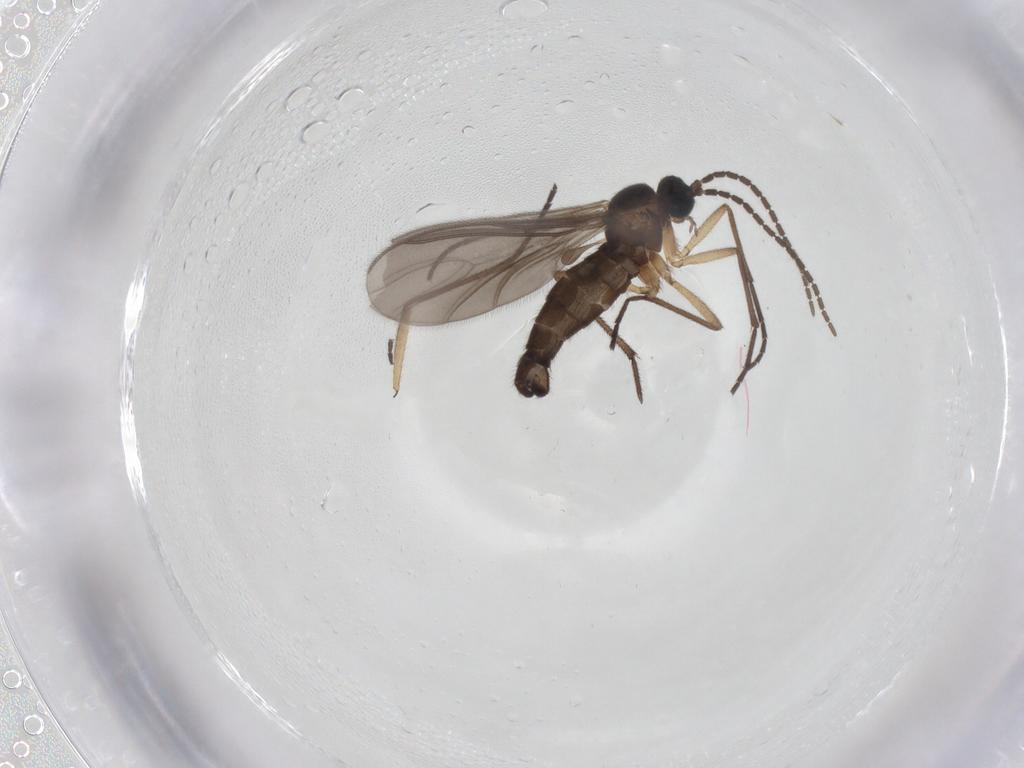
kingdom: Animalia
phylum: Arthropoda
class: Insecta
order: Diptera
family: Sciaridae
